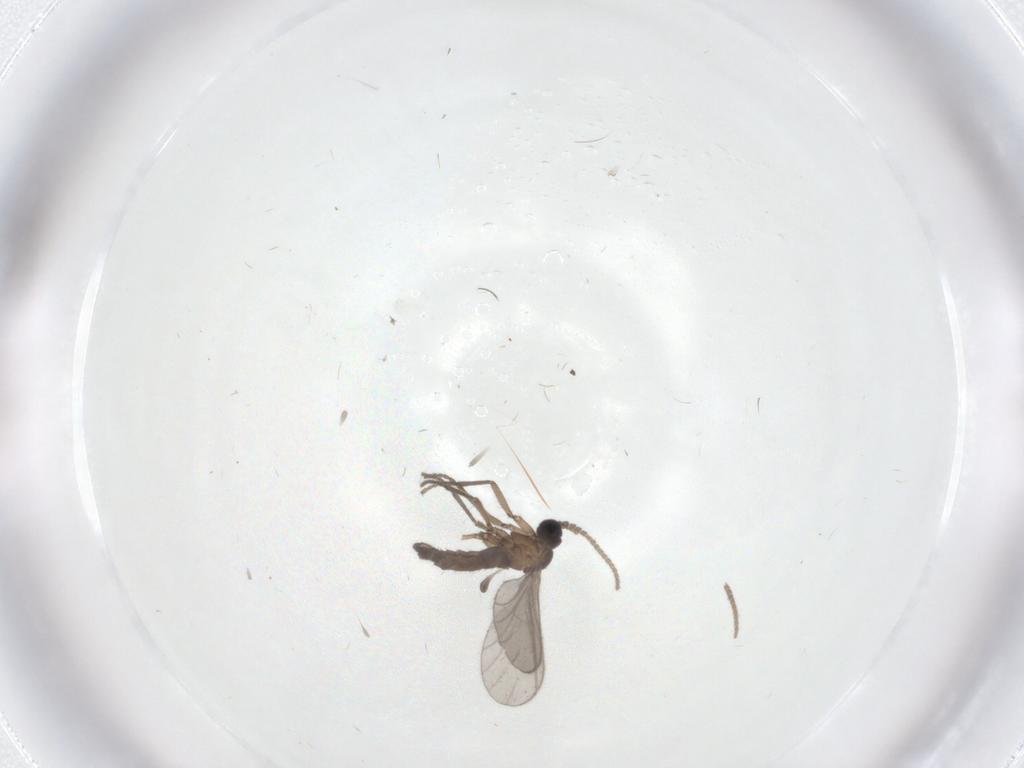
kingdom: Animalia
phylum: Arthropoda
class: Insecta
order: Diptera
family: Sciaridae
